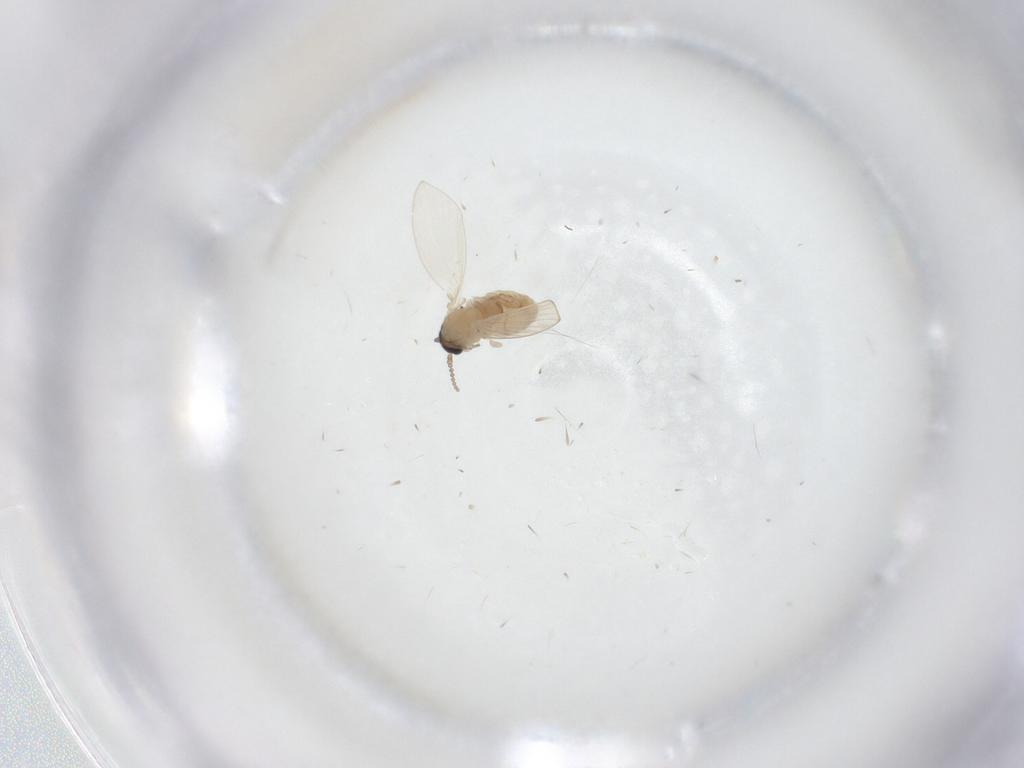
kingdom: Animalia
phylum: Arthropoda
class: Insecta
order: Diptera
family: Psychodidae
